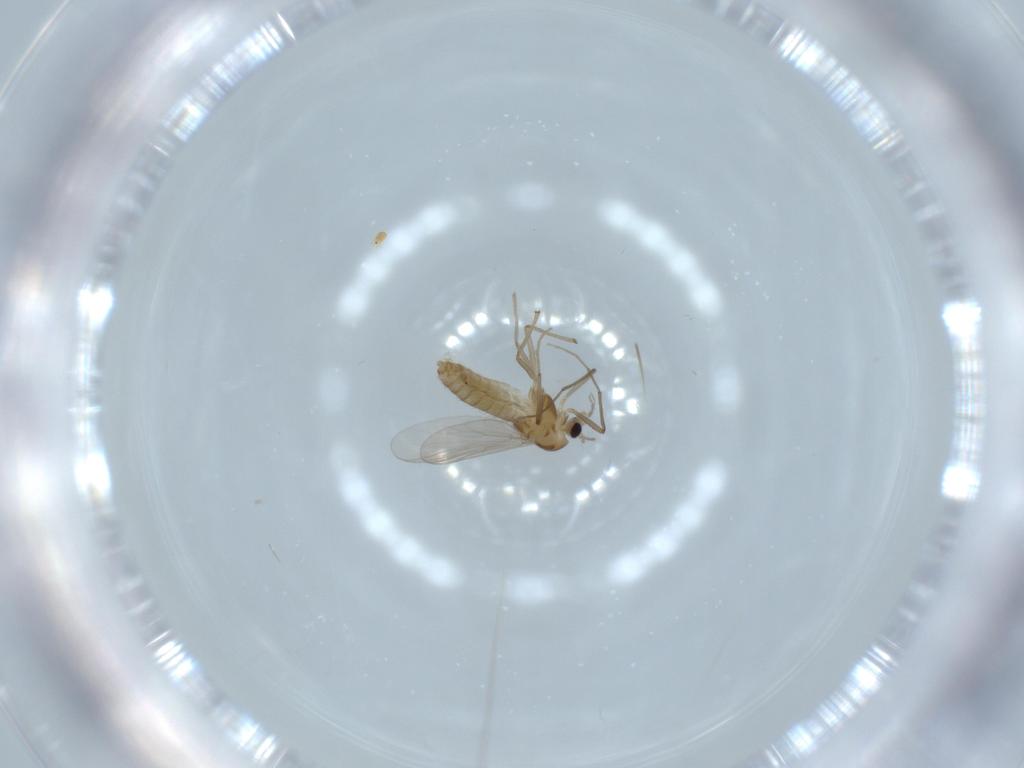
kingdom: Animalia
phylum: Arthropoda
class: Insecta
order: Diptera
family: Chironomidae
